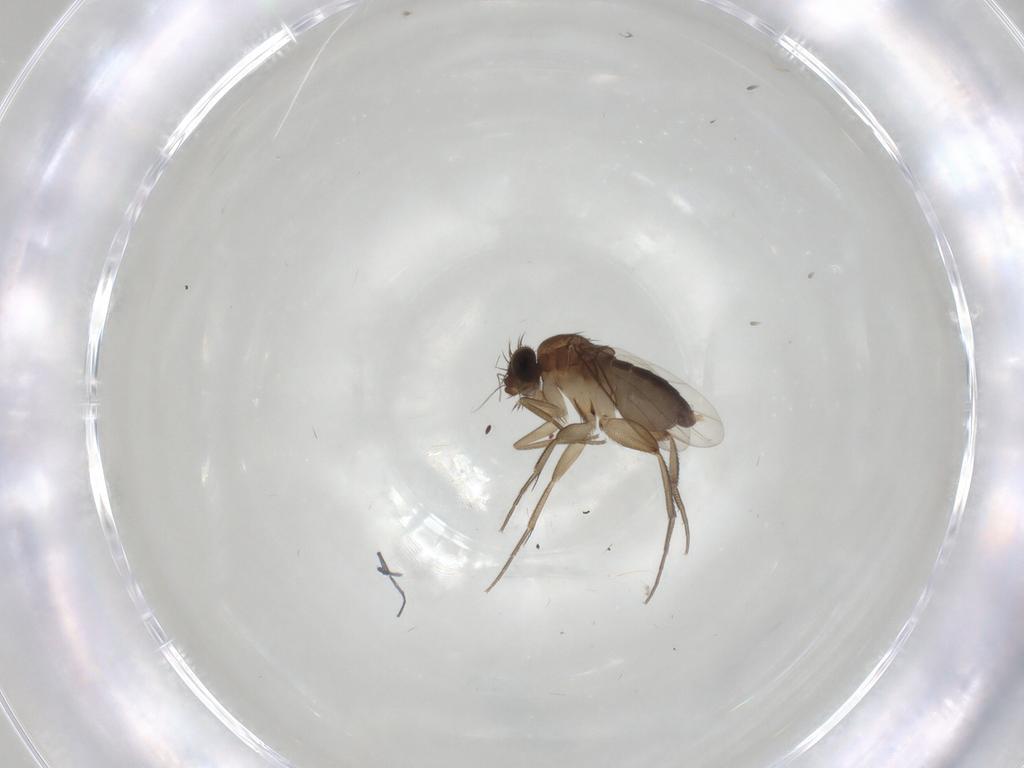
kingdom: Animalia
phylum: Arthropoda
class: Insecta
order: Diptera
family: Phoridae
